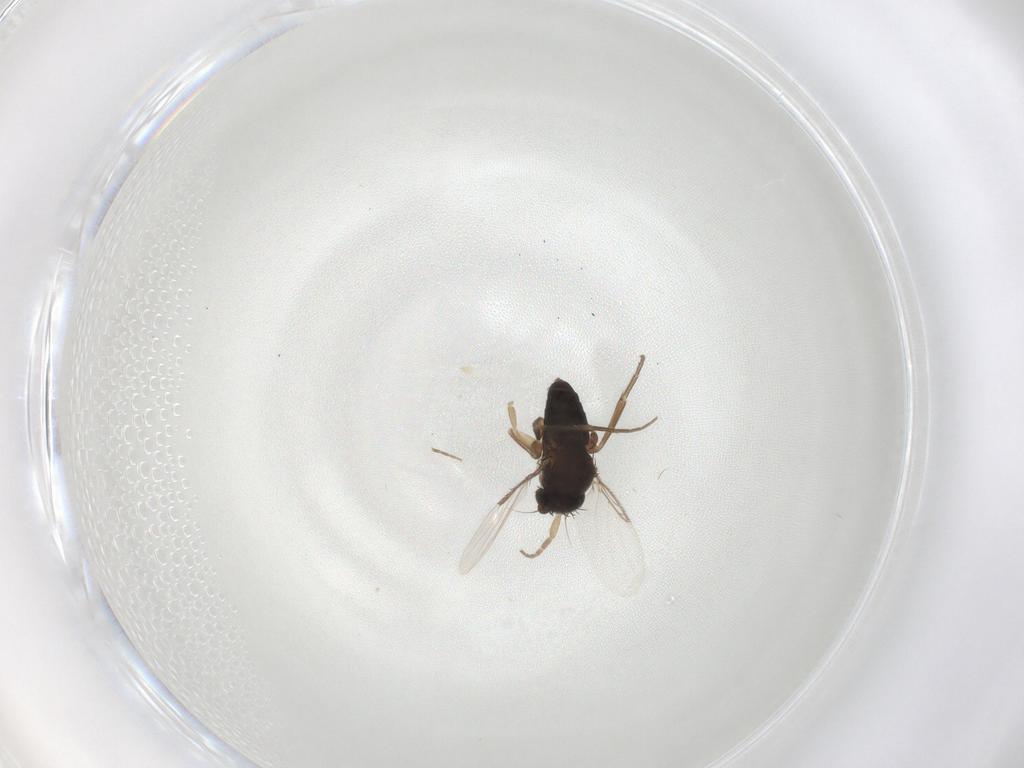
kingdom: Animalia
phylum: Arthropoda
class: Insecta
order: Diptera
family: Phoridae
